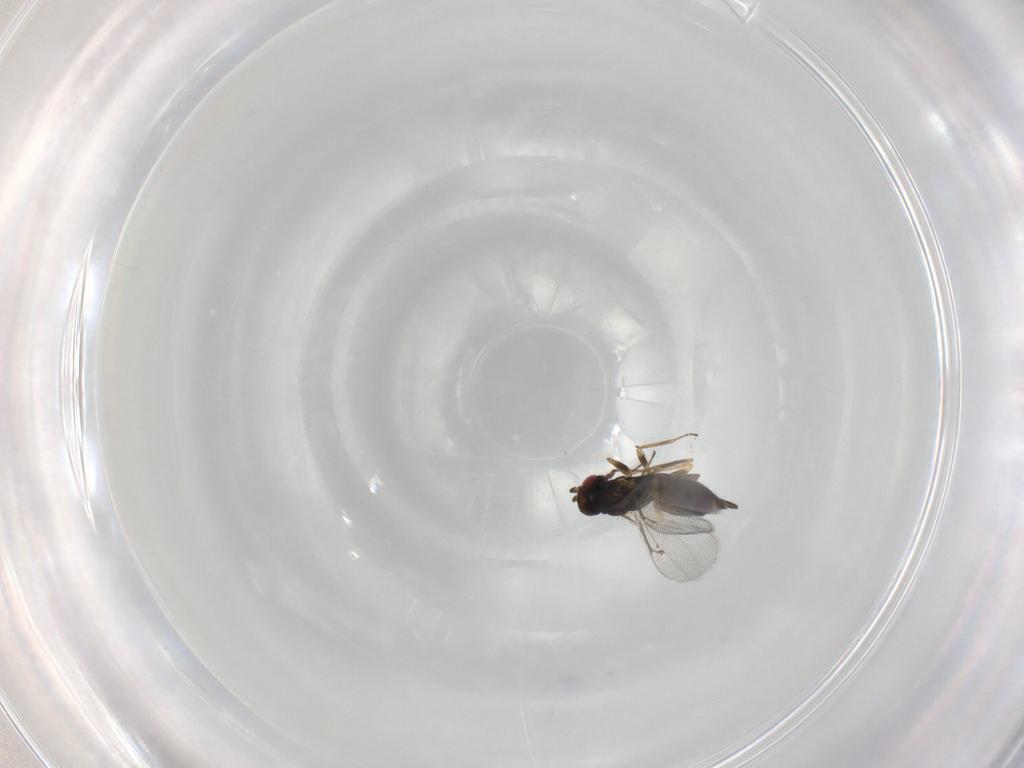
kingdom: Animalia
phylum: Arthropoda
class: Insecta
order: Hymenoptera
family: Eulophidae
